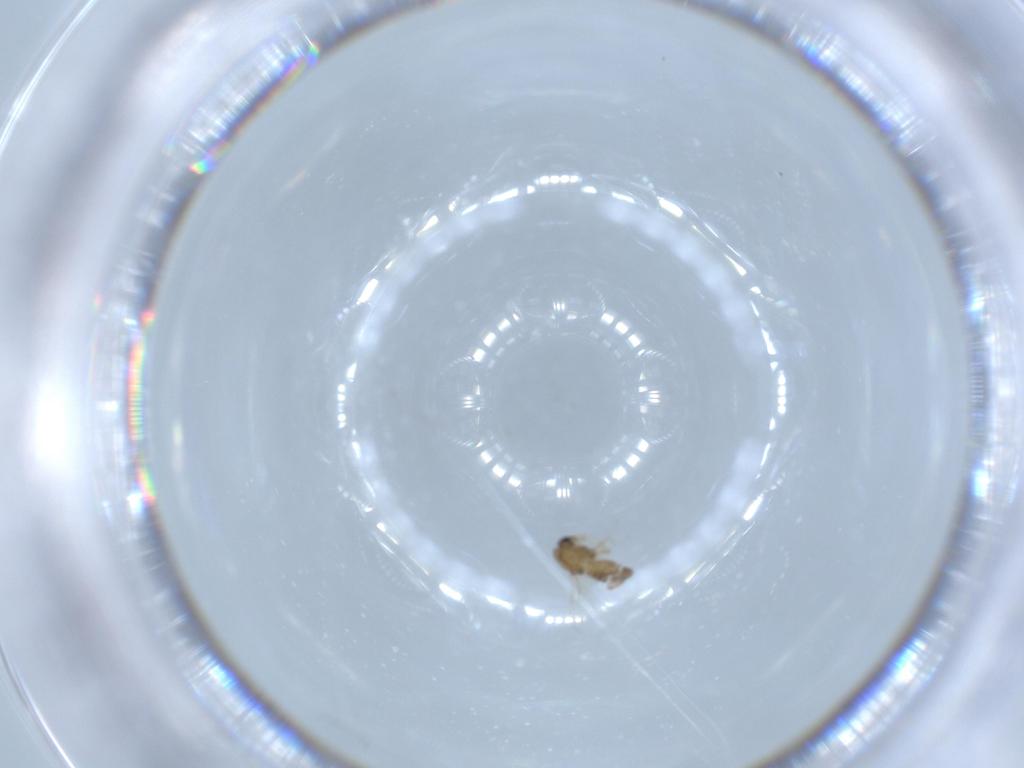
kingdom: Animalia
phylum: Arthropoda
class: Insecta
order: Diptera
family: Chironomidae
